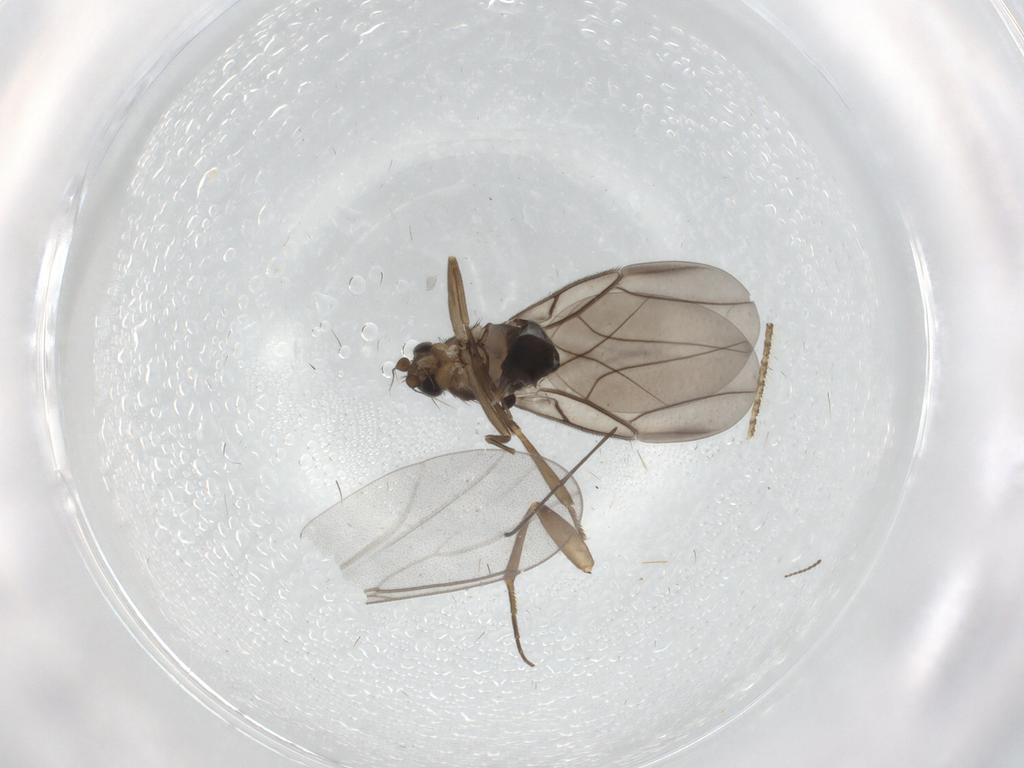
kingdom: Animalia
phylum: Arthropoda
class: Insecta
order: Diptera
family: Phoridae
